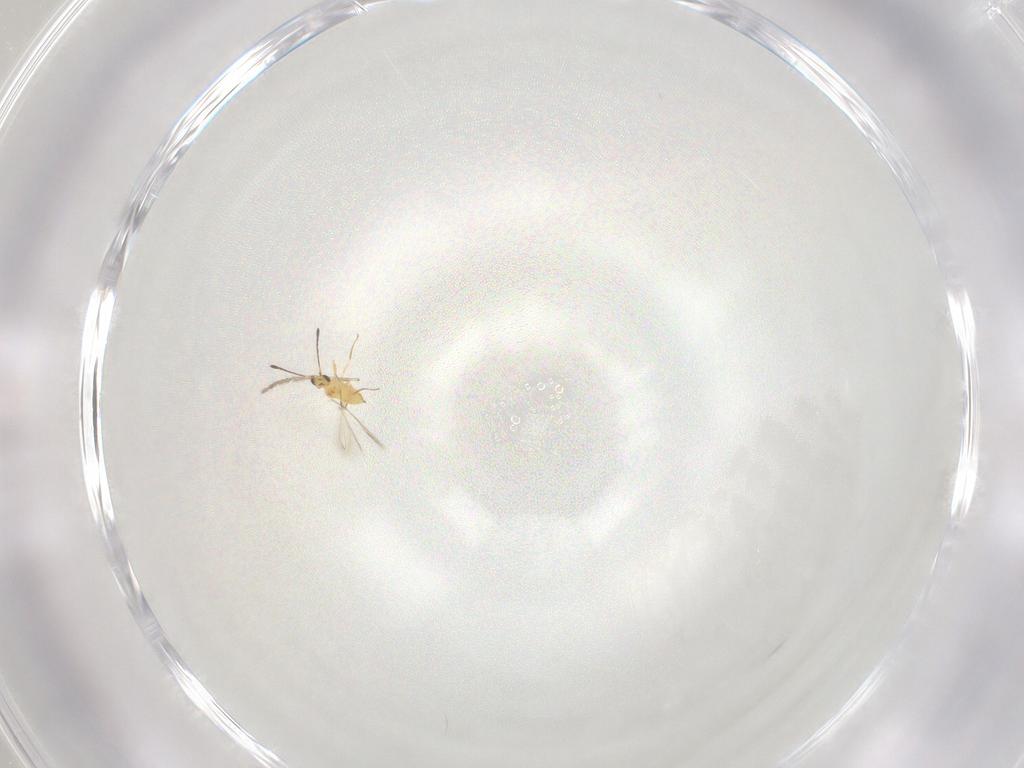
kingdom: Animalia
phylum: Arthropoda
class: Insecta
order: Hymenoptera
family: Mymaridae
